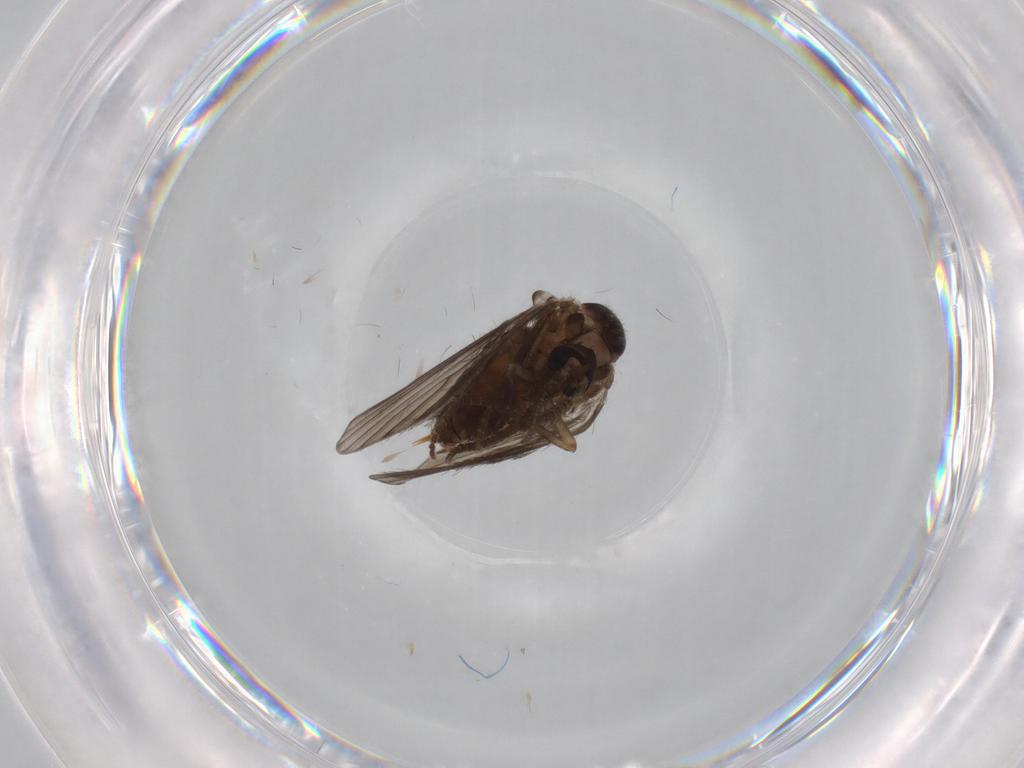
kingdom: Animalia
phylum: Arthropoda
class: Insecta
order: Diptera
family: Psychodidae
